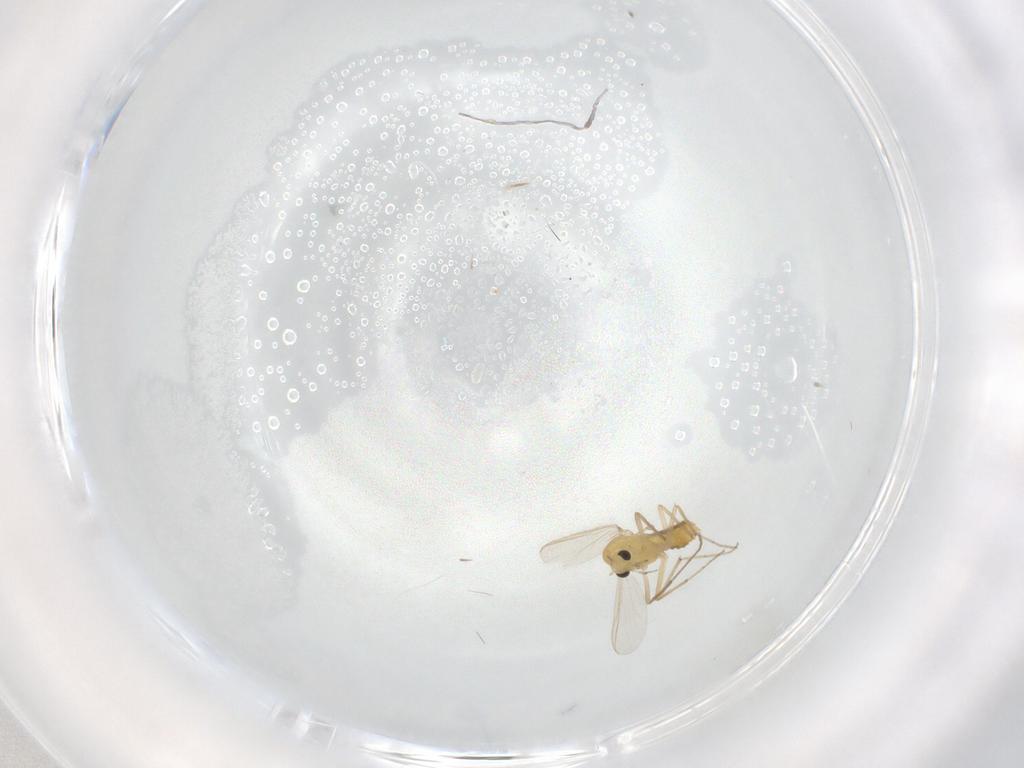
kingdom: Animalia
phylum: Arthropoda
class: Insecta
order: Diptera
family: Chironomidae
